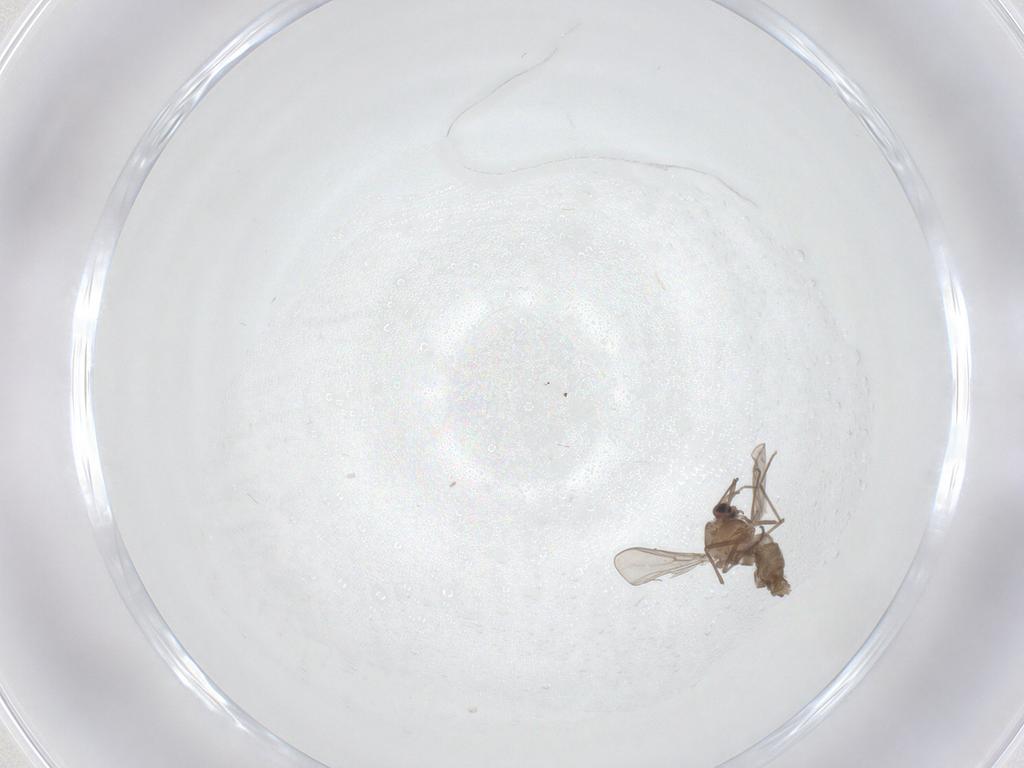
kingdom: Animalia
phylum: Arthropoda
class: Insecta
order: Diptera
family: Chironomidae
